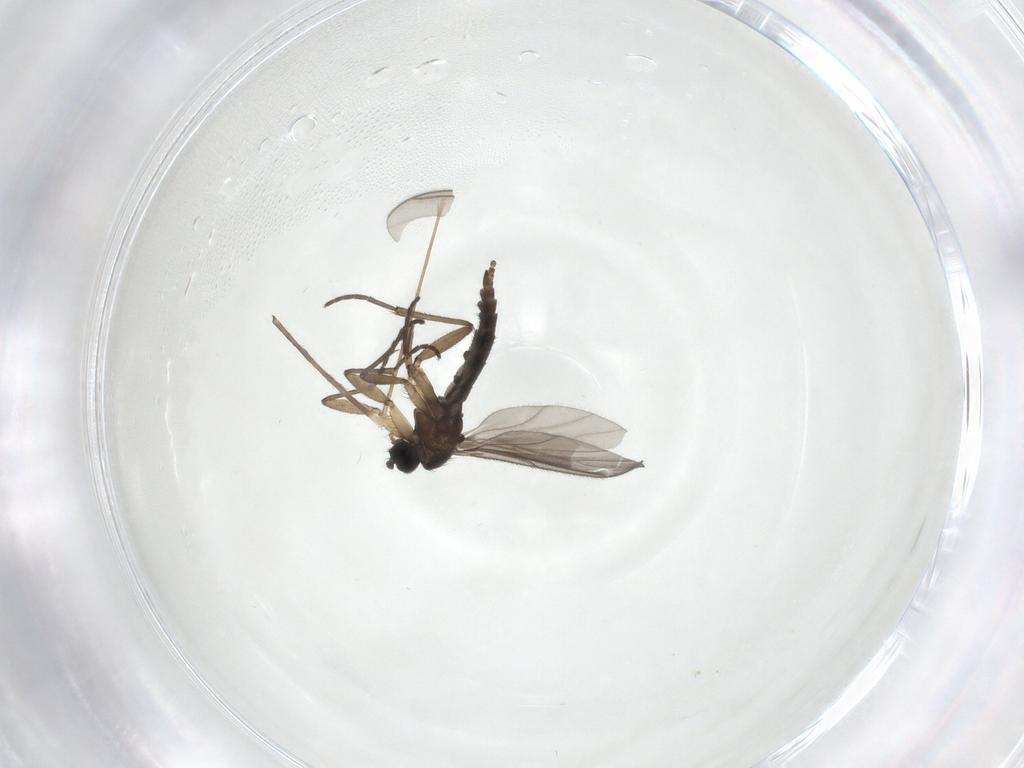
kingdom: Animalia
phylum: Arthropoda
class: Insecta
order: Diptera
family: Sciaridae
